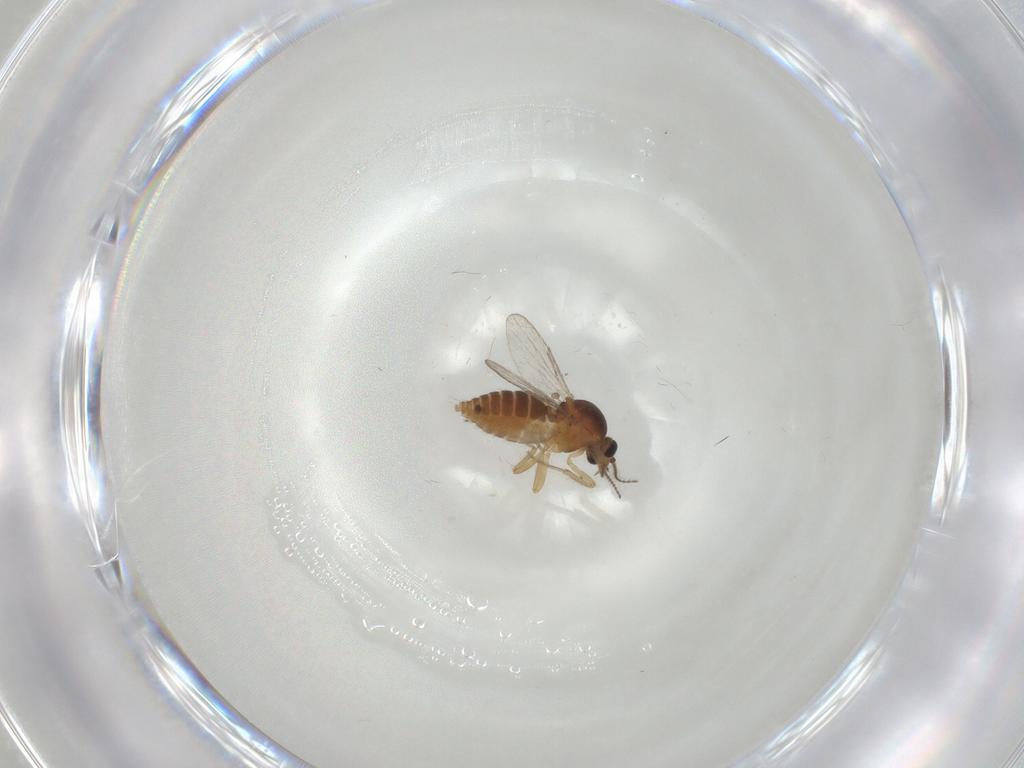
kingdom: Animalia
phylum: Arthropoda
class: Insecta
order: Diptera
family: Ceratopogonidae
